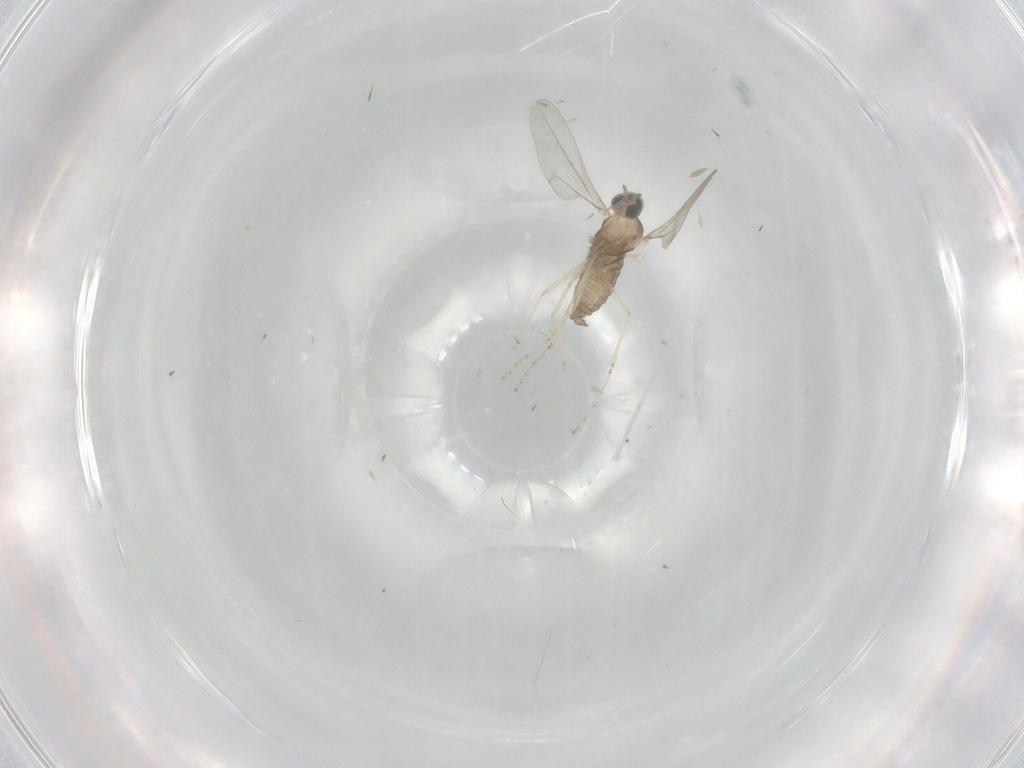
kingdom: Animalia
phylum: Arthropoda
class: Insecta
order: Diptera
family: Cecidomyiidae
